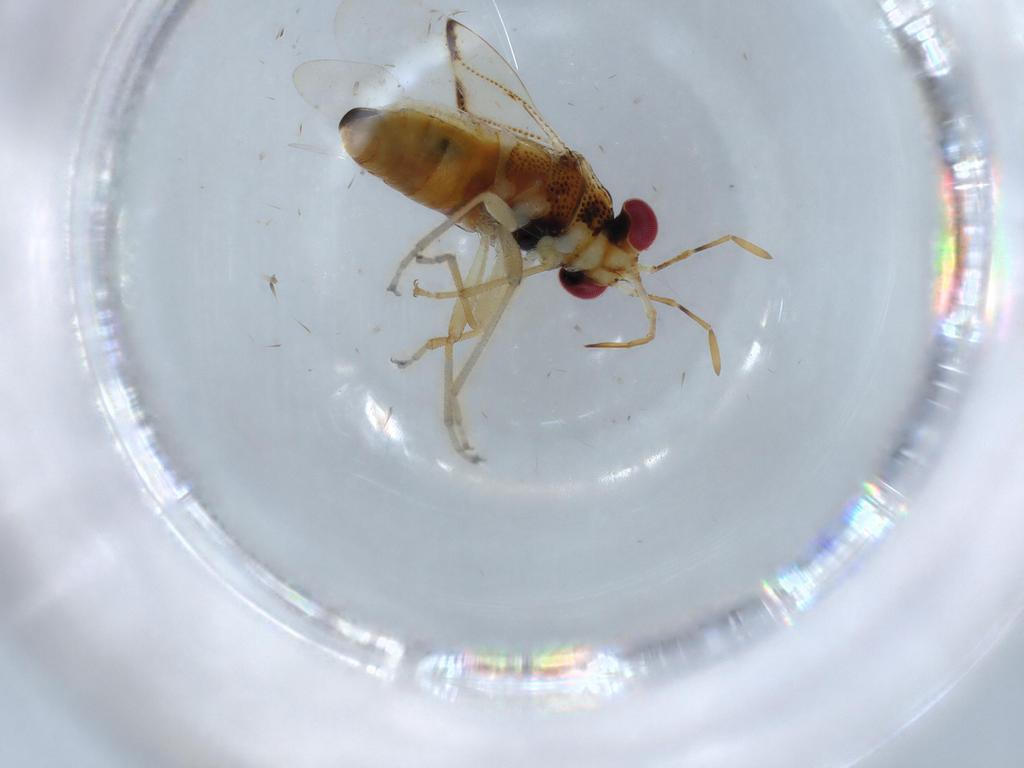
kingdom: Animalia
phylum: Arthropoda
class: Insecta
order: Hemiptera
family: Geocoridae
